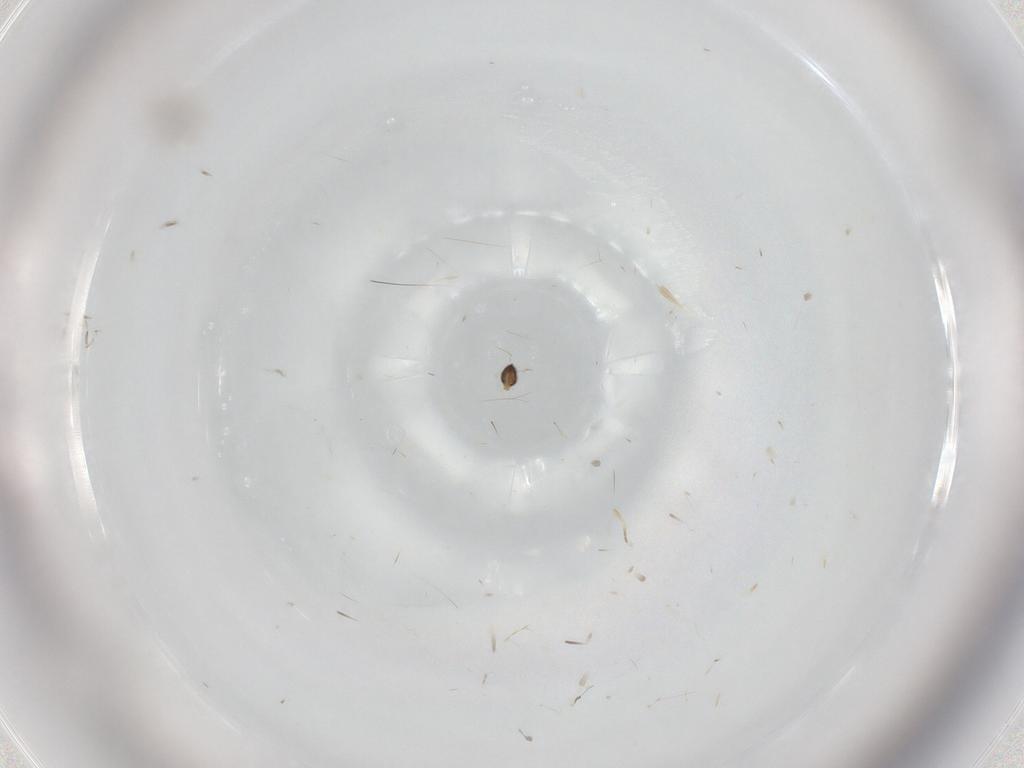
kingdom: Animalia
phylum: Arthropoda
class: Insecta
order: Diptera
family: Cecidomyiidae
